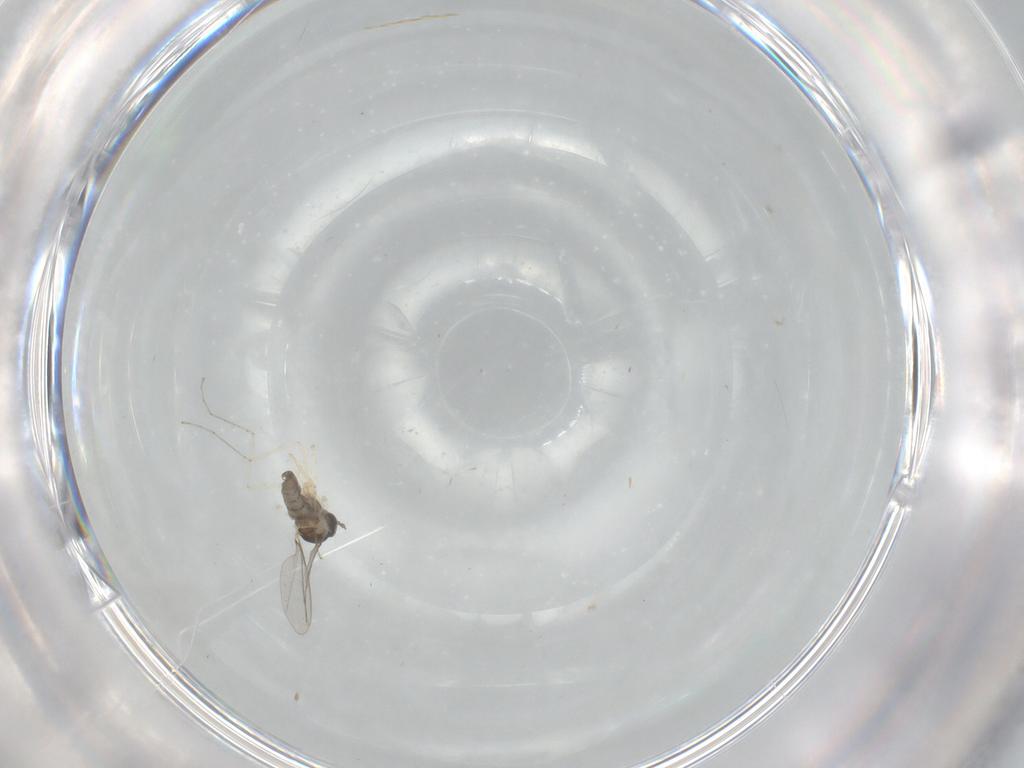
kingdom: Animalia
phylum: Arthropoda
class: Insecta
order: Diptera
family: Cecidomyiidae
